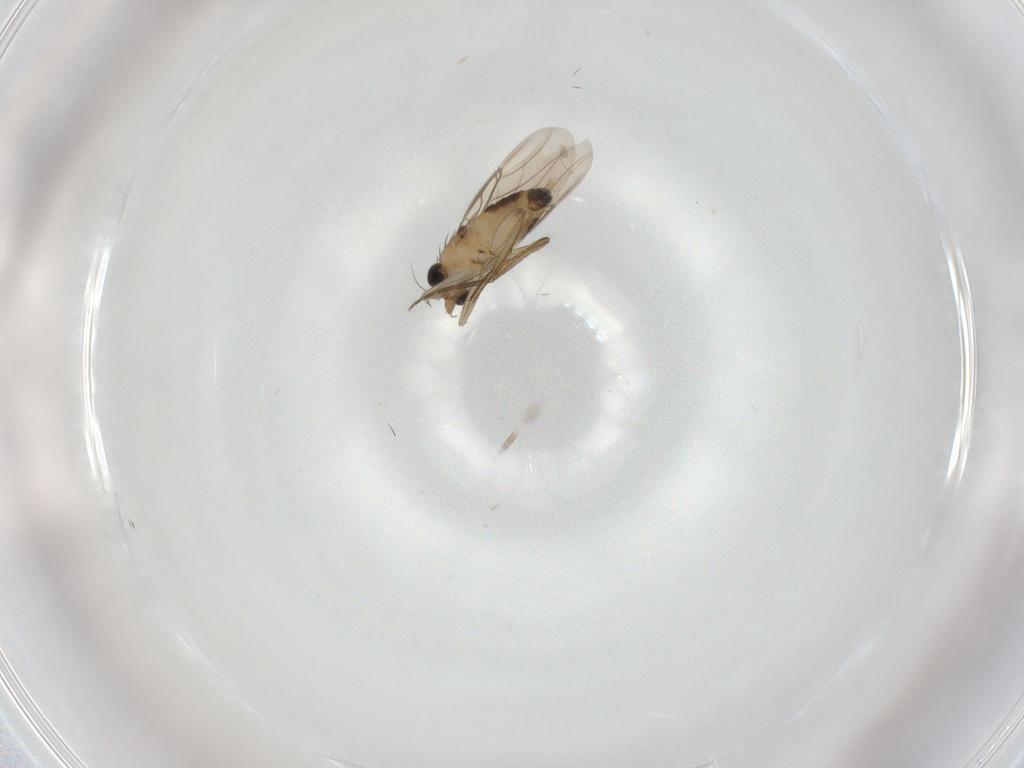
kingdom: Animalia
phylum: Arthropoda
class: Insecta
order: Diptera
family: Phoridae
